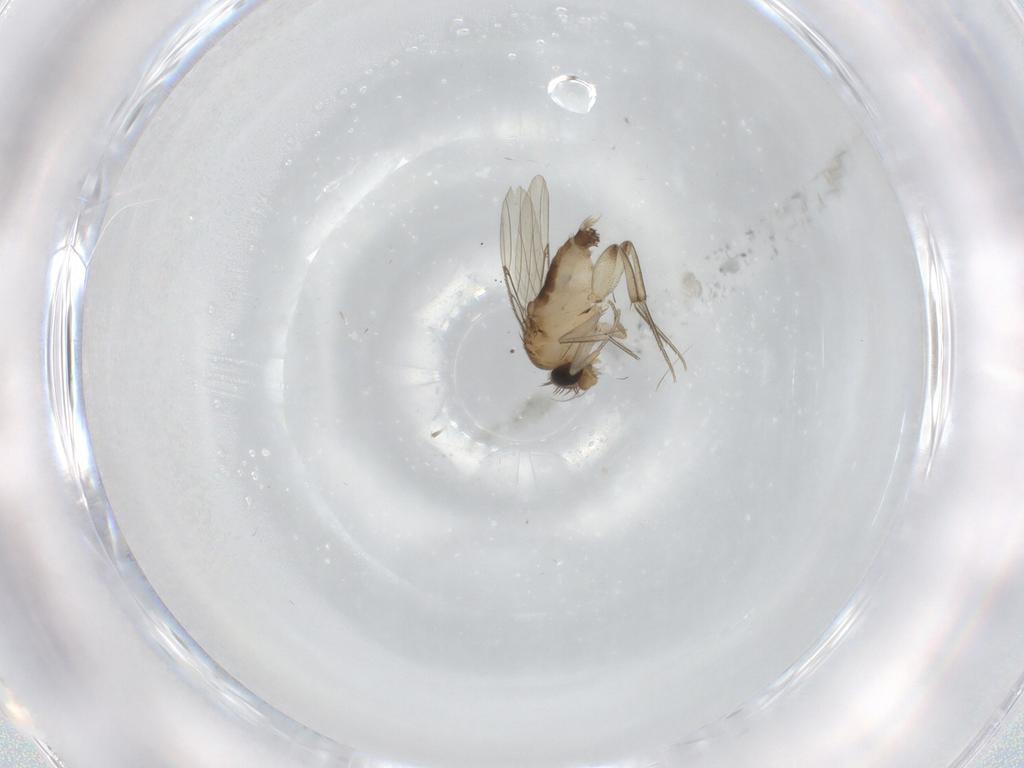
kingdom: Animalia
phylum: Arthropoda
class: Insecta
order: Diptera
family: Phoridae
